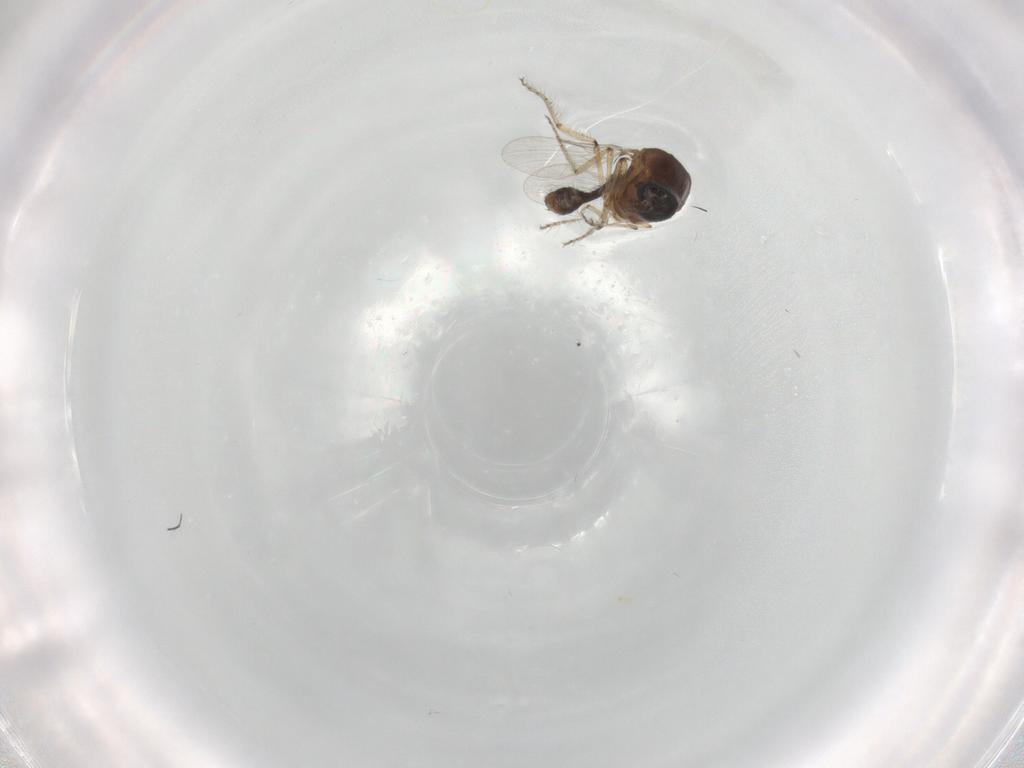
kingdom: Animalia
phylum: Arthropoda
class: Insecta
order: Diptera
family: Ceratopogonidae
